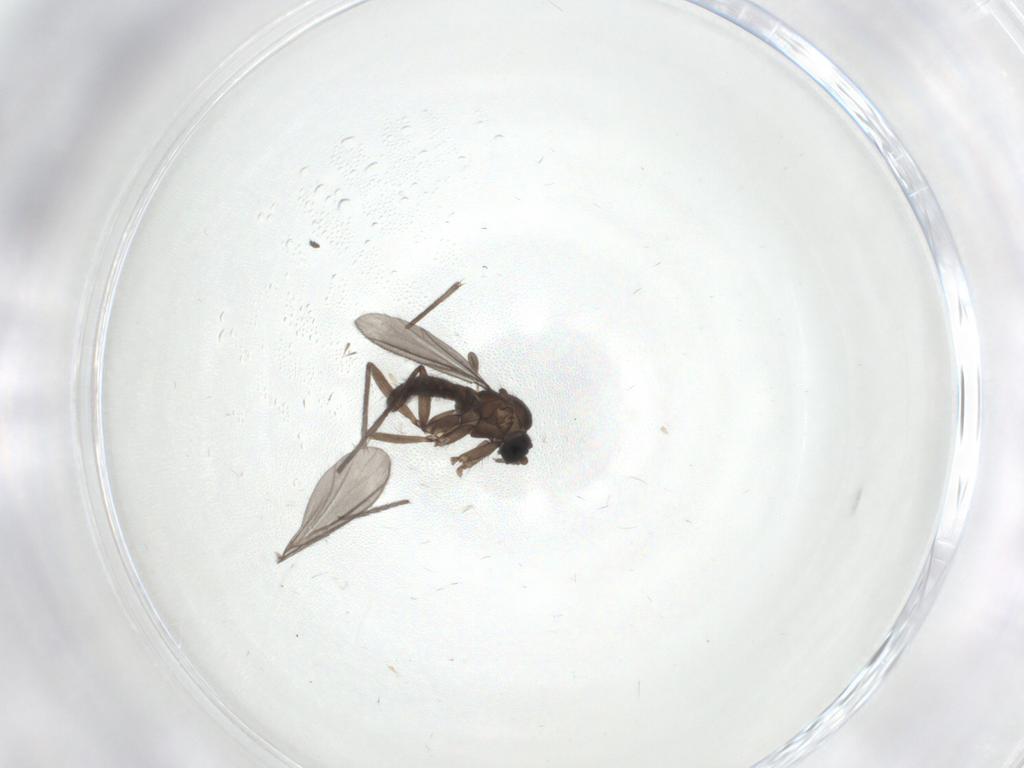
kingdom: Animalia
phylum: Arthropoda
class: Insecta
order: Diptera
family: Sciaridae
